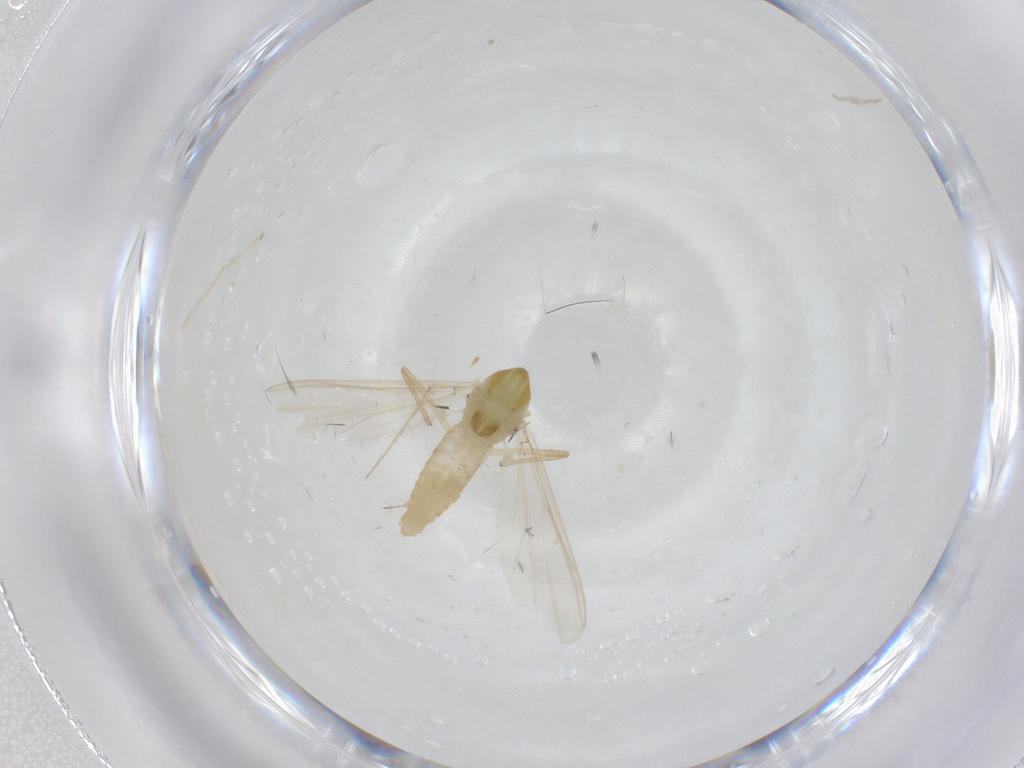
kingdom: Animalia
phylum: Arthropoda
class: Insecta
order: Diptera
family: Chironomidae
